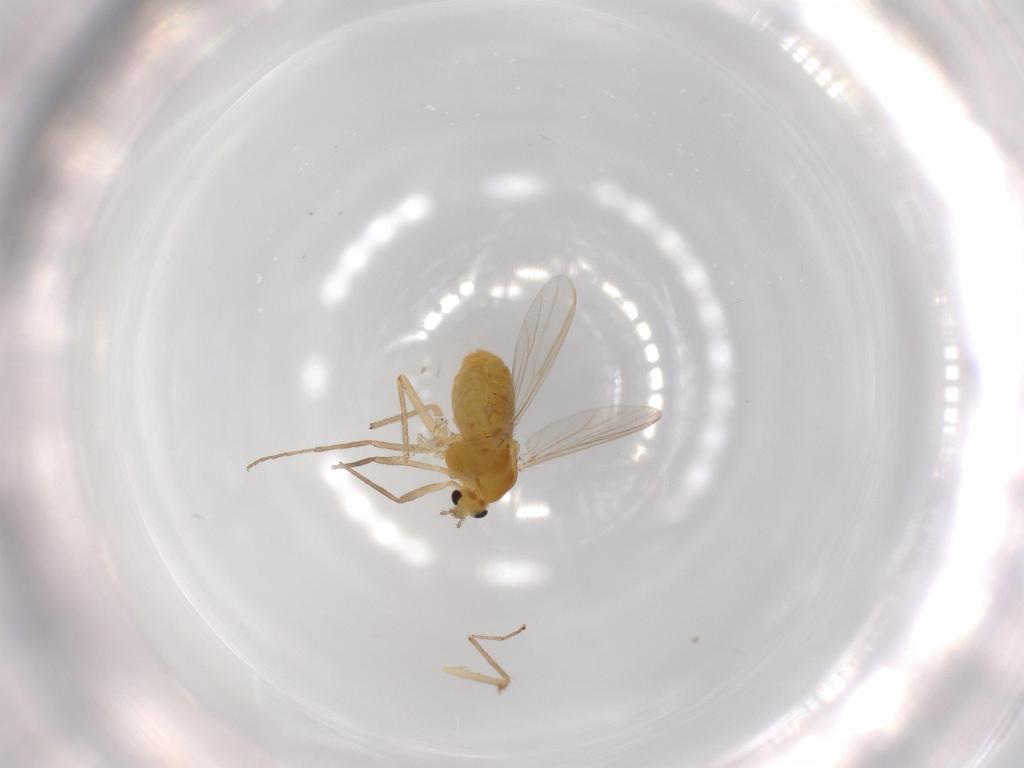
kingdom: Animalia
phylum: Arthropoda
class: Insecta
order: Diptera
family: Chironomidae
